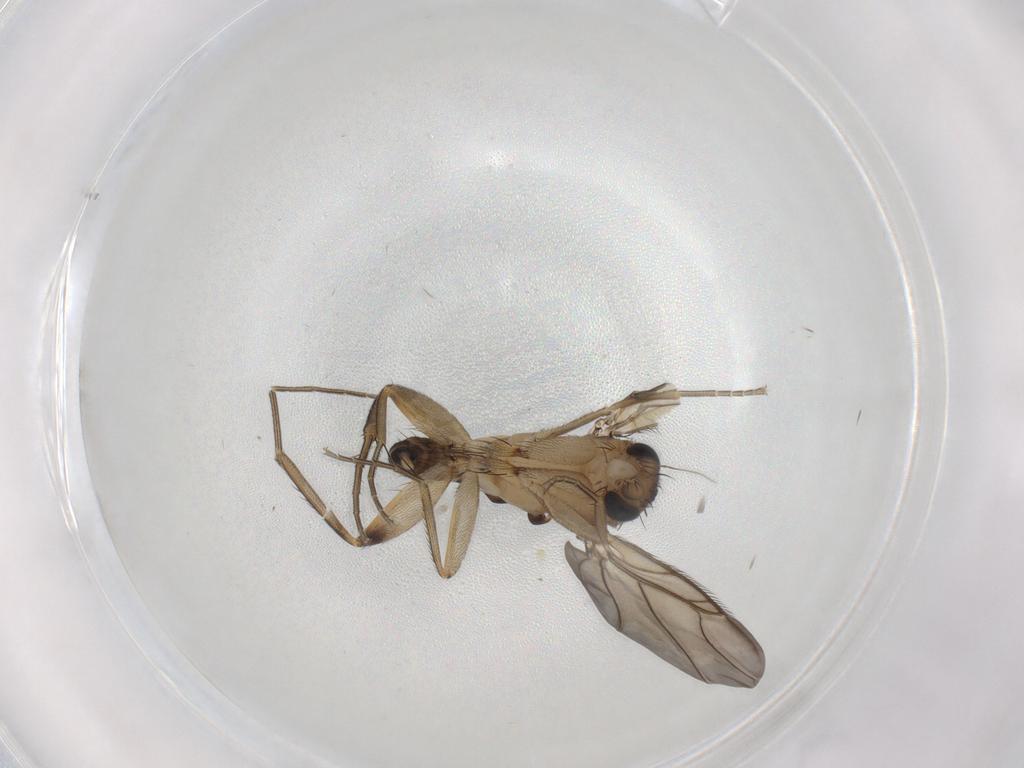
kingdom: Animalia
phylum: Arthropoda
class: Insecta
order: Diptera
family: Phoridae
